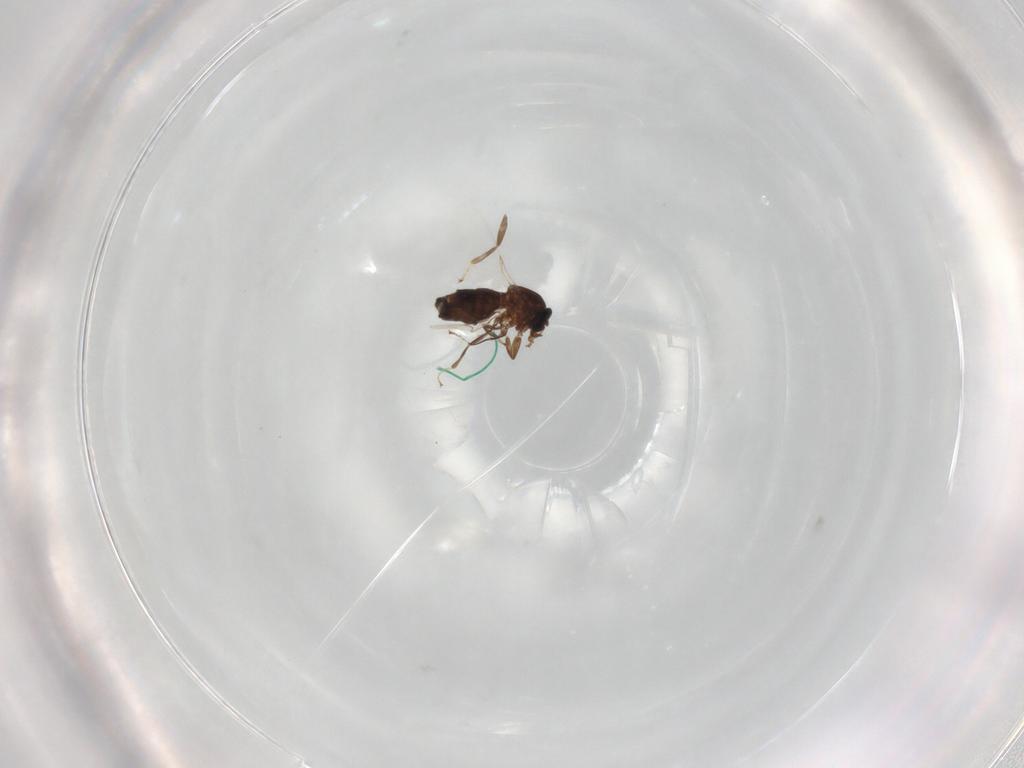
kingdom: Animalia
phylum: Arthropoda
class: Insecta
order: Diptera
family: Scatopsidae
